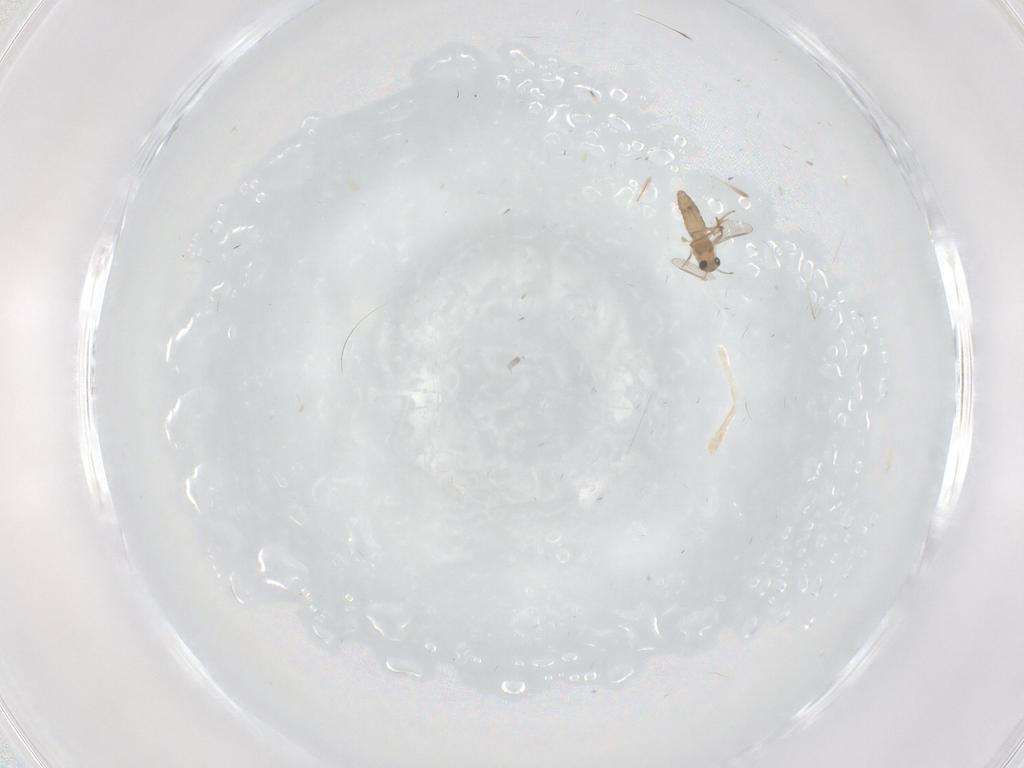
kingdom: Animalia
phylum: Arthropoda
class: Insecta
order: Diptera
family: Chironomidae
